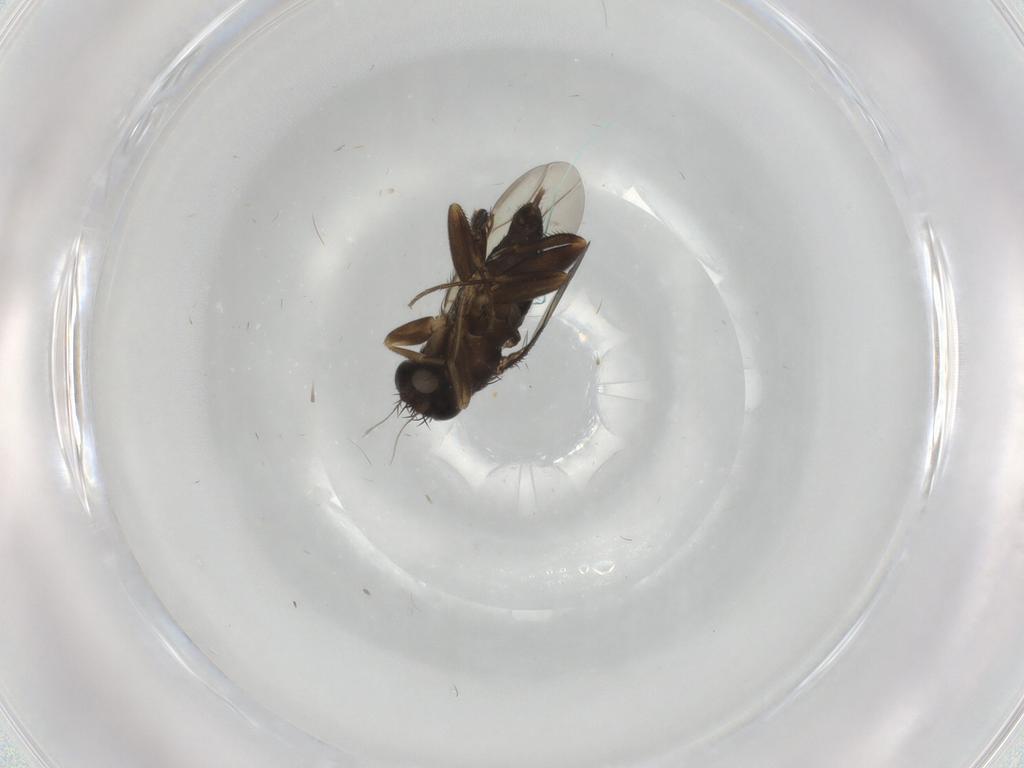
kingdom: Animalia
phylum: Arthropoda
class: Insecta
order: Diptera
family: Phoridae
